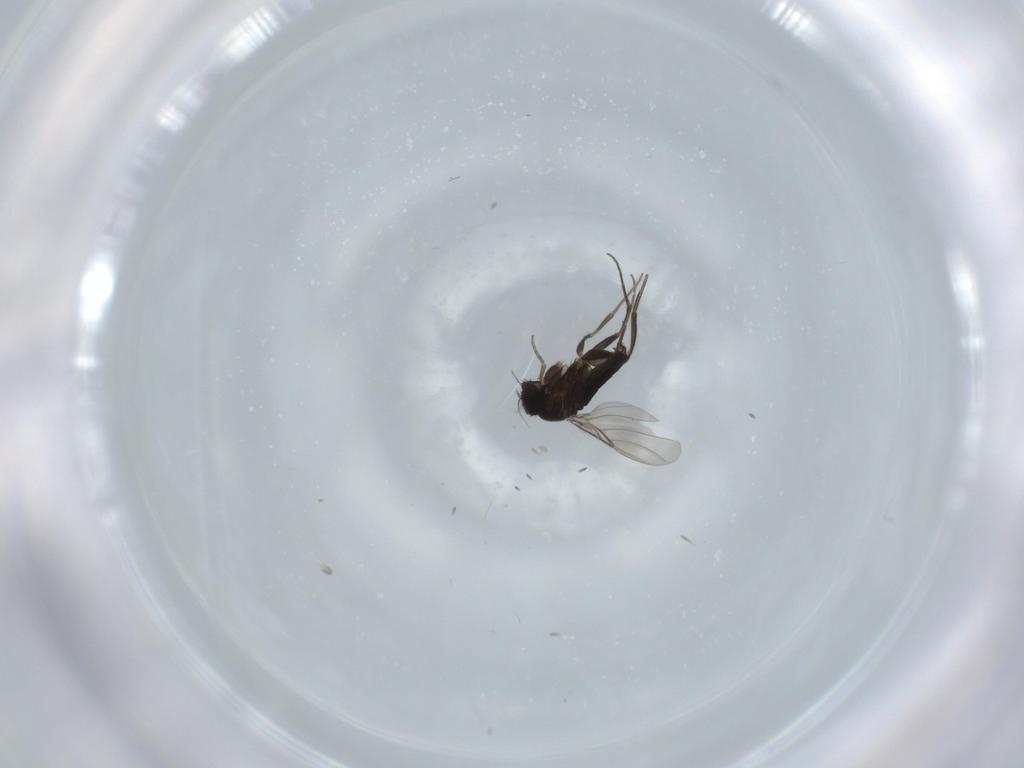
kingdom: Animalia
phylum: Arthropoda
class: Insecta
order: Diptera
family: Phoridae
